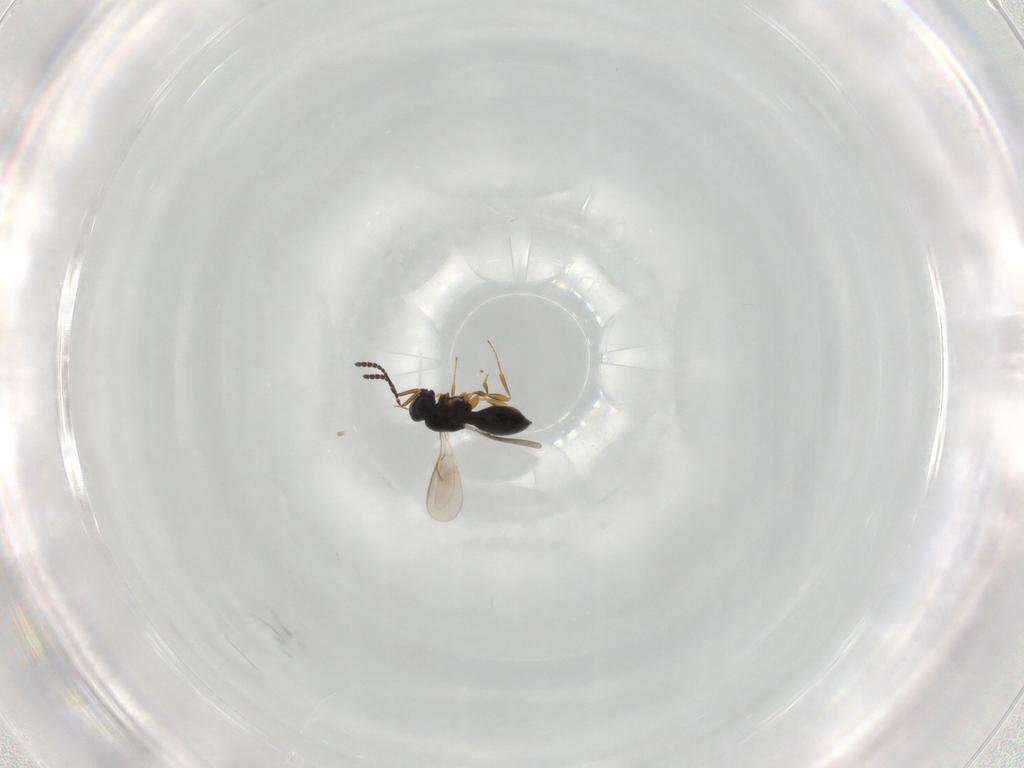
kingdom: Animalia
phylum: Arthropoda
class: Insecta
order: Hymenoptera
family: Scelionidae
